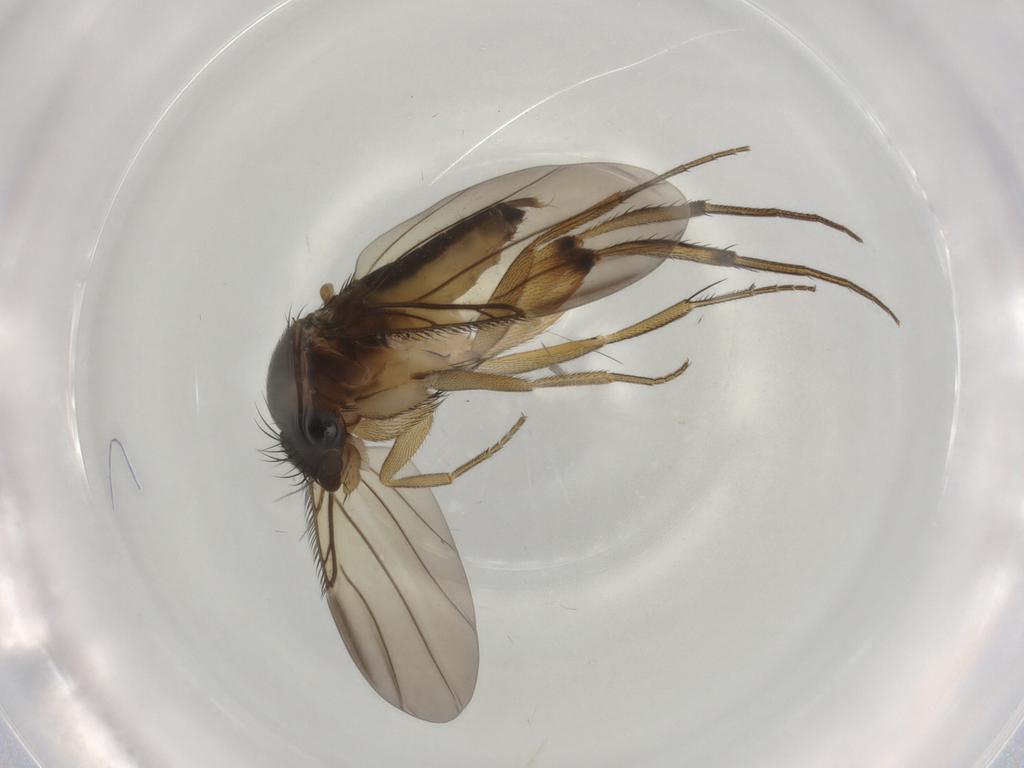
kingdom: Animalia
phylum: Arthropoda
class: Insecta
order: Diptera
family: Phoridae
